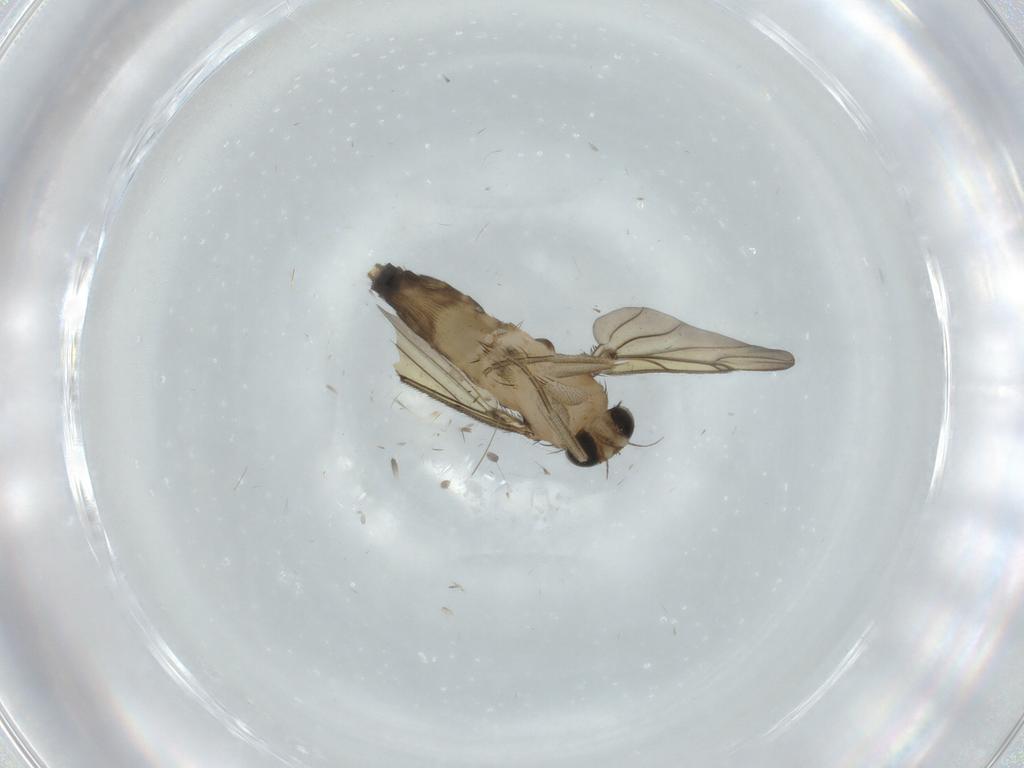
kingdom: Animalia
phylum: Arthropoda
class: Insecta
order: Diptera
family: Phoridae
